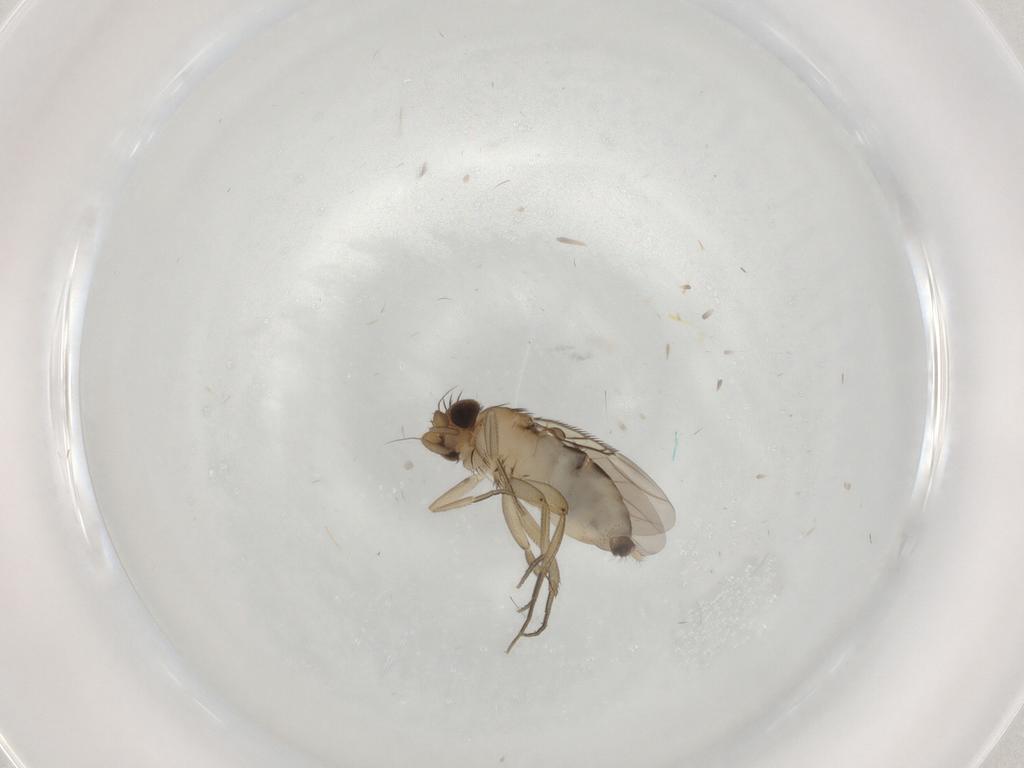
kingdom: Animalia
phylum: Arthropoda
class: Insecta
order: Diptera
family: Phoridae
